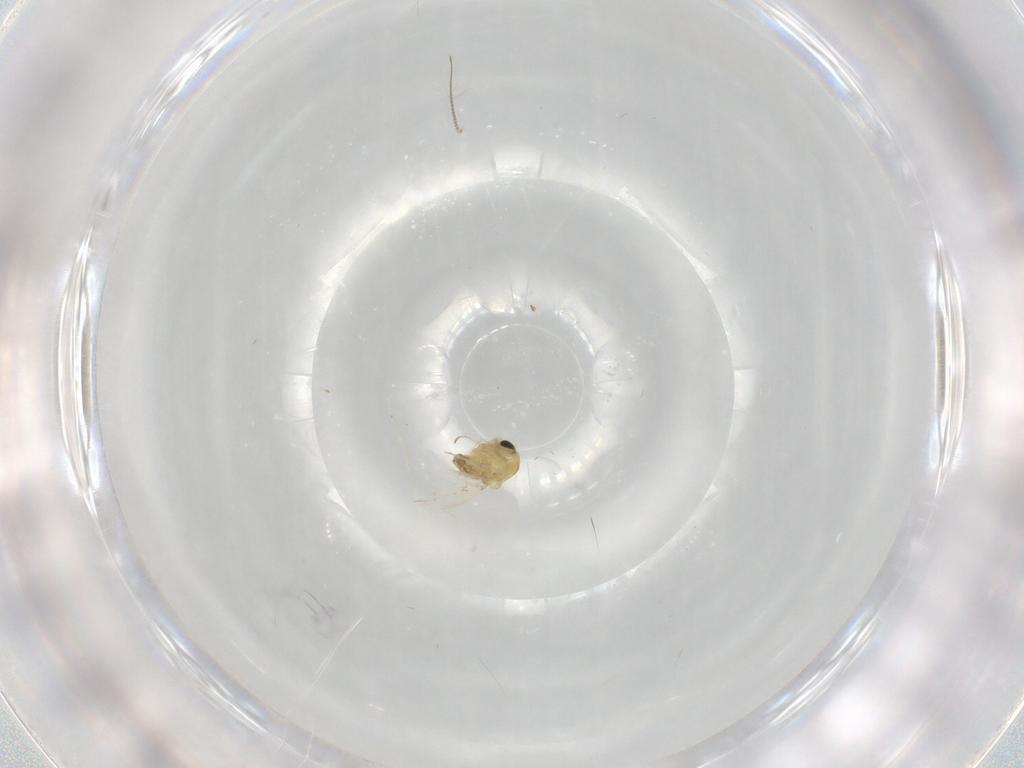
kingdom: Animalia
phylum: Arthropoda
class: Insecta
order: Diptera
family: Chironomidae
